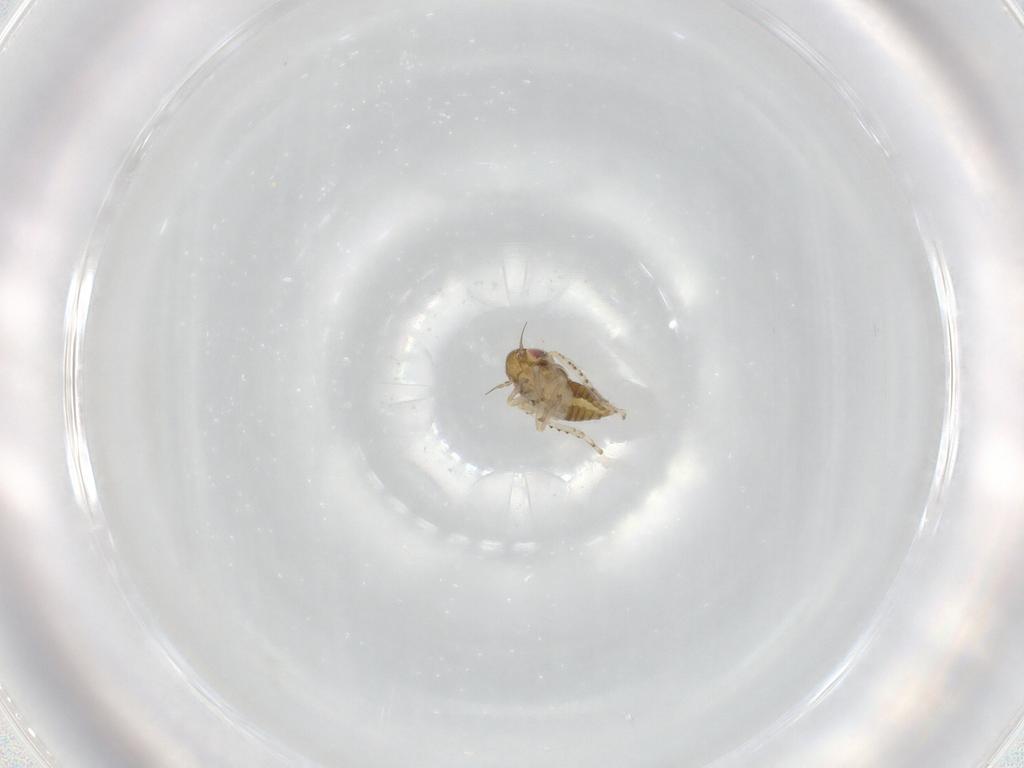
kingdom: Animalia
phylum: Arthropoda
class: Insecta
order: Hemiptera
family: Cicadellidae
